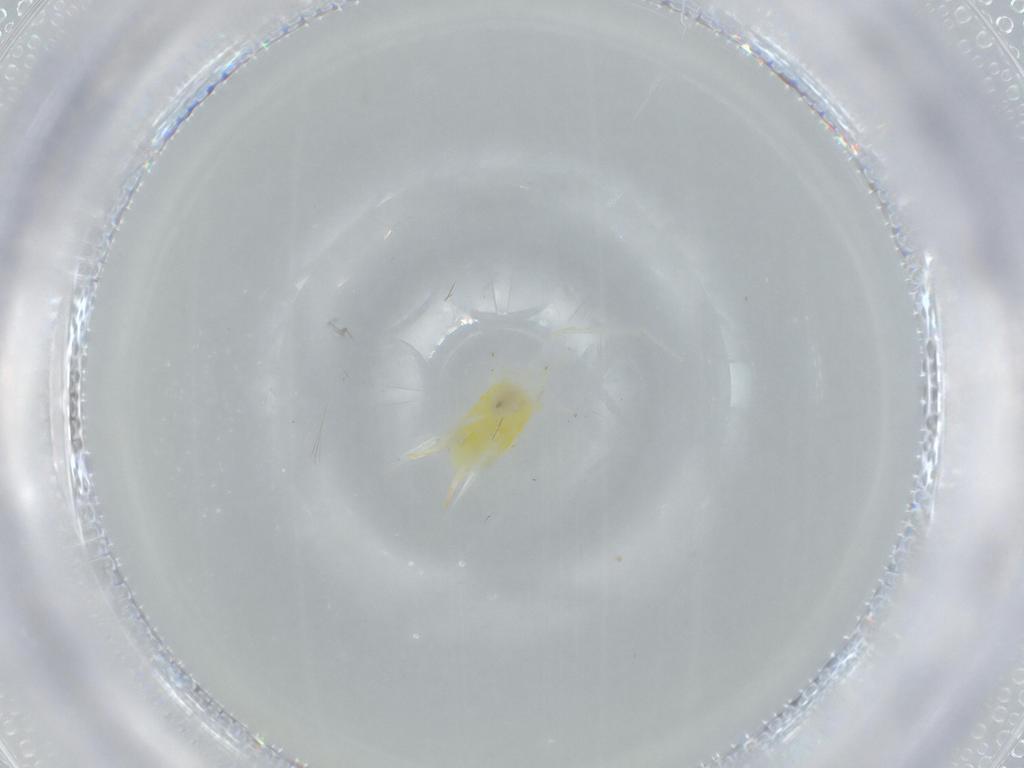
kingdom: Animalia
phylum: Arthropoda
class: Insecta
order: Hemiptera
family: Cicadellidae
